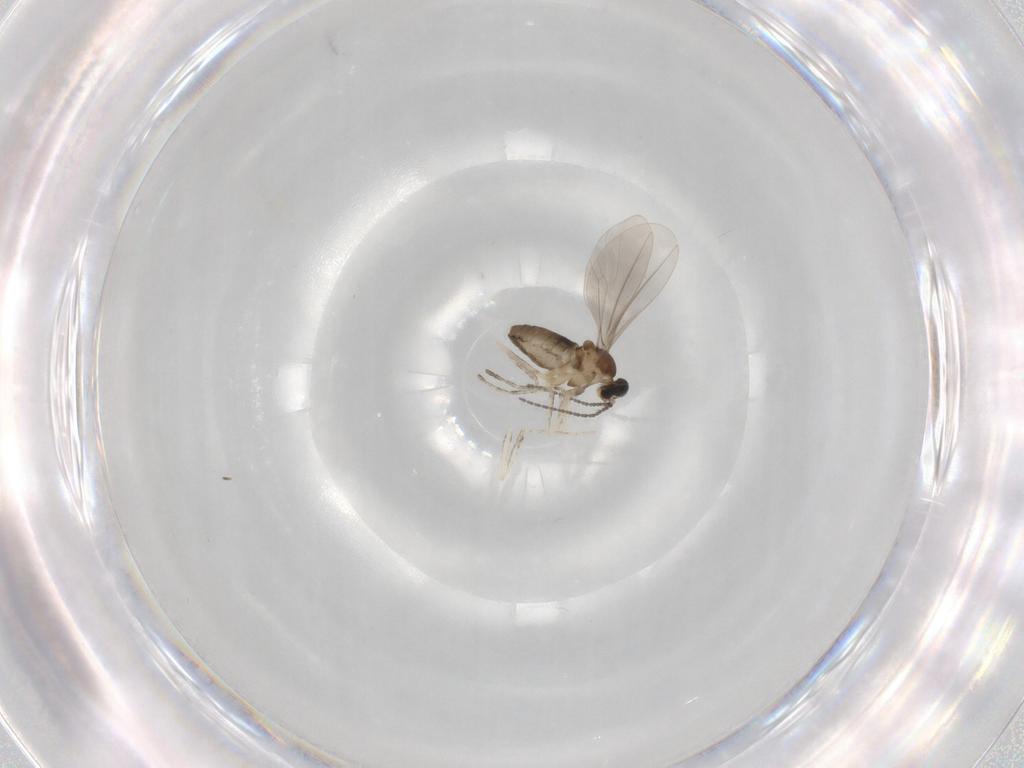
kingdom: Animalia
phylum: Arthropoda
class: Insecta
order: Diptera
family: Cecidomyiidae
